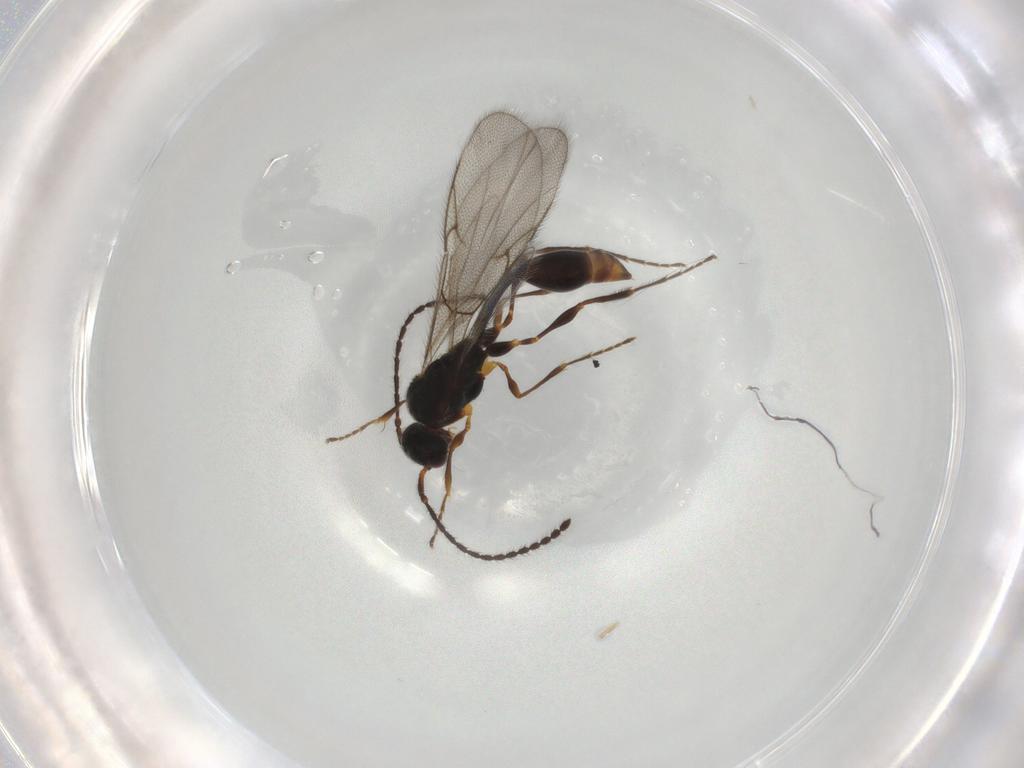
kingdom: Animalia
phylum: Arthropoda
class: Insecta
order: Hymenoptera
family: Diapriidae
